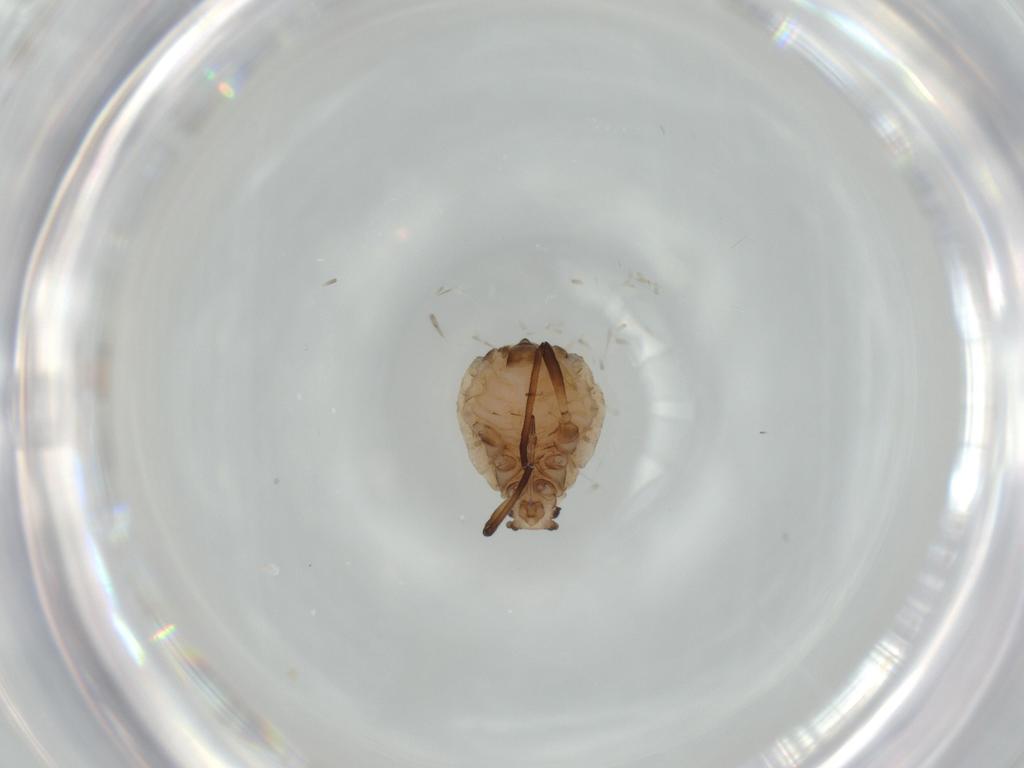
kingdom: Animalia
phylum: Arthropoda
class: Insecta
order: Hemiptera
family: Aphididae
